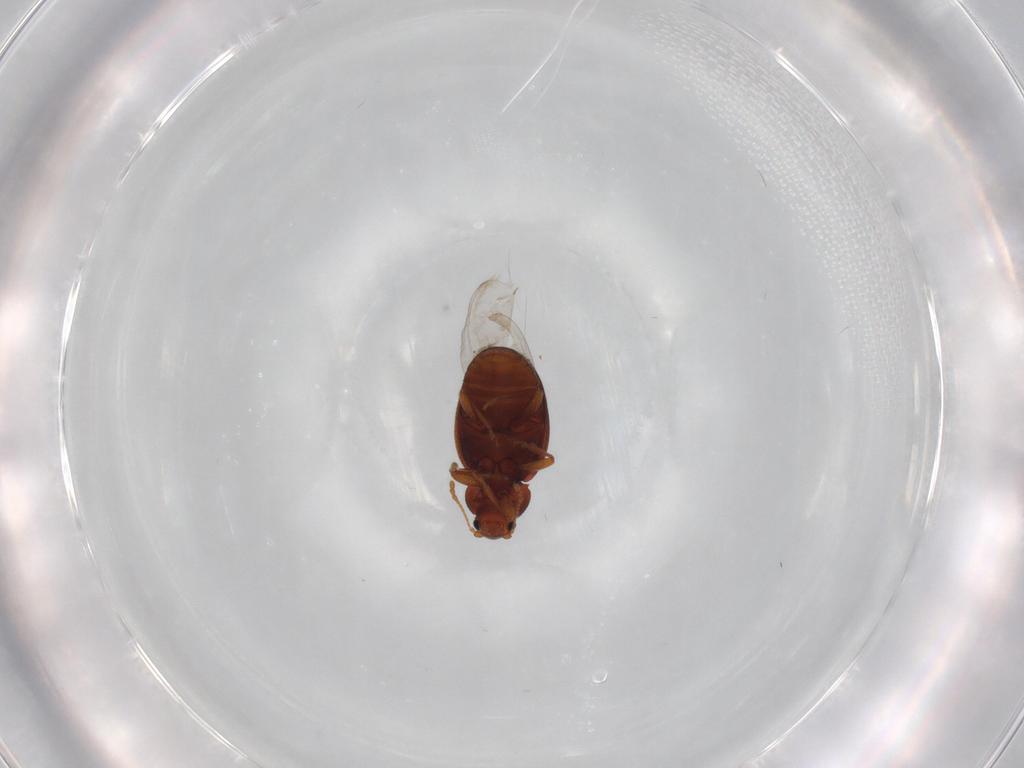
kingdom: Animalia
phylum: Arthropoda
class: Insecta
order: Coleoptera
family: Latridiidae
